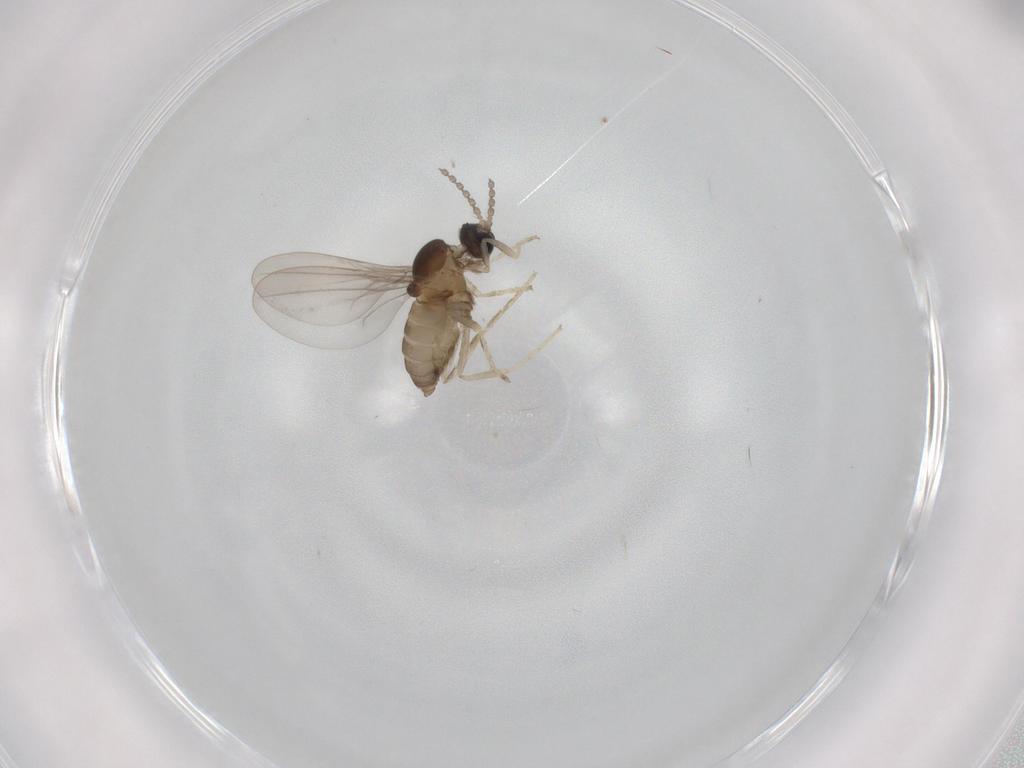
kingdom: Animalia
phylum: Arthropoda
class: Insecta
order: Diptera
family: Cecidomyiidae
